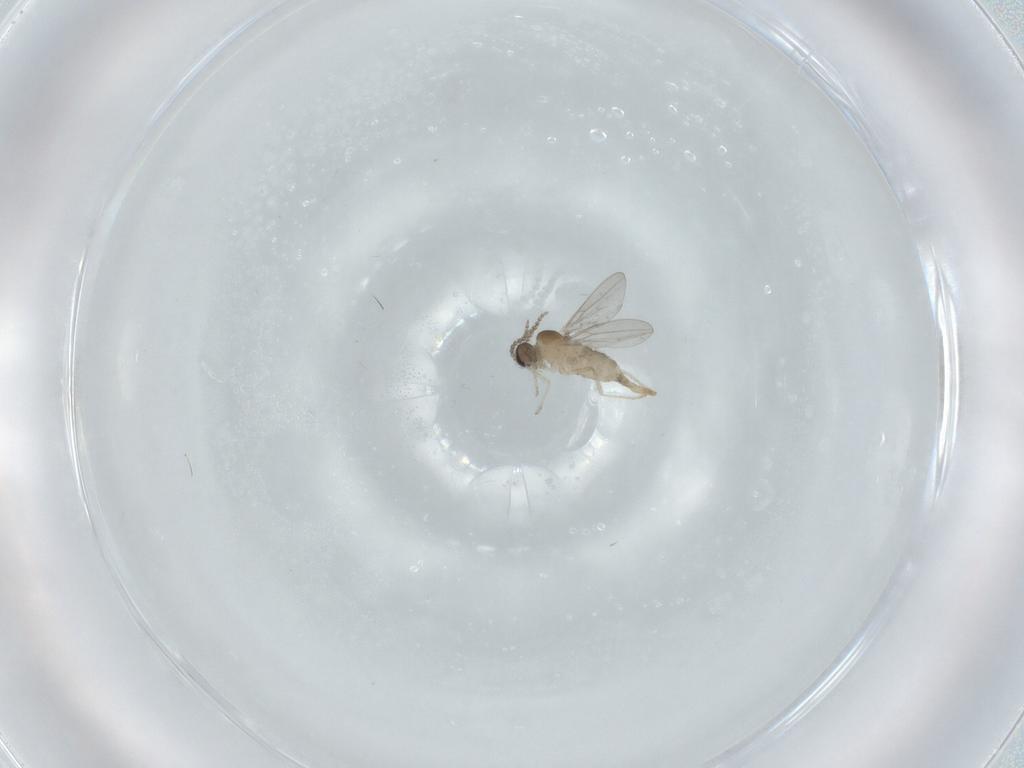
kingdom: Animalia
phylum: Arthropoda
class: Insecta
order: Diptera
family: Cecidomyiidae
